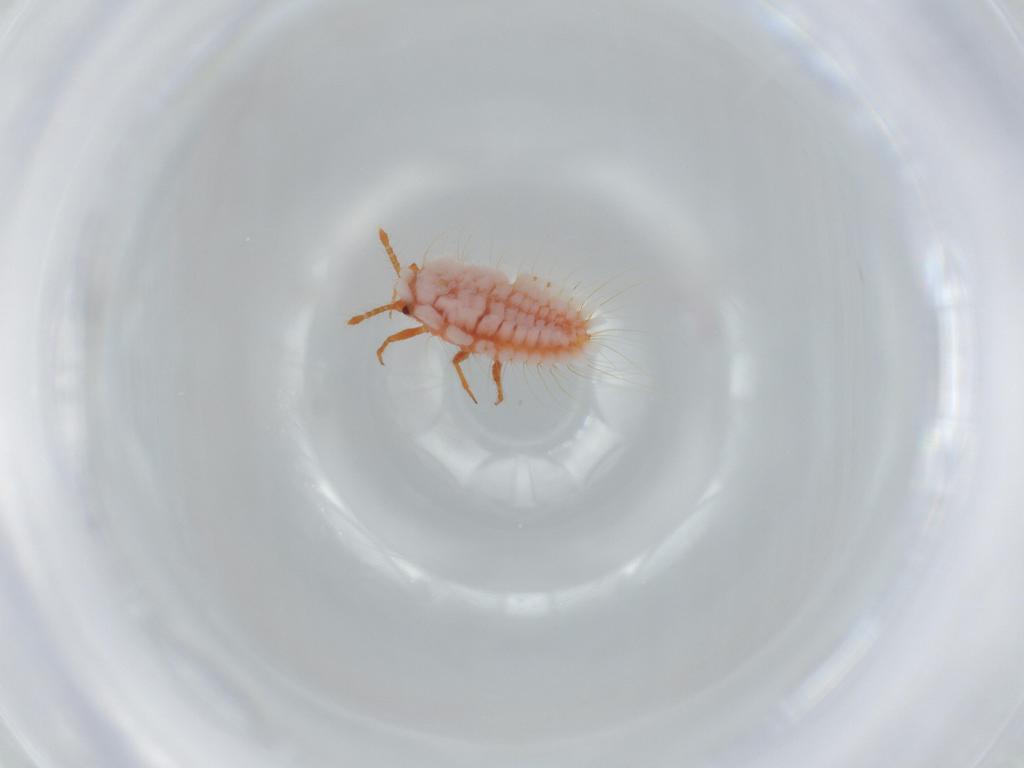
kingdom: Animalia
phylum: Arthropoda
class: Insecta
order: Hemiptera
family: Coccoidea_incertae_sedis
